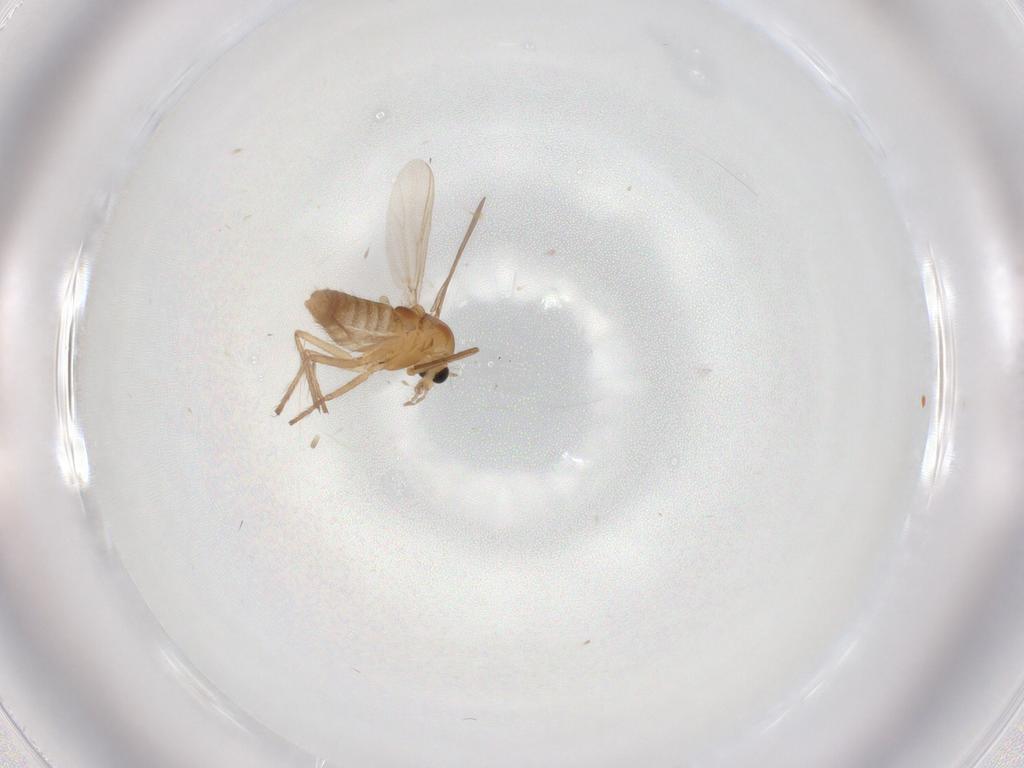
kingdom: Animalia
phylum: Arthropoda
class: Insecta
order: Diptera
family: Chironomidae
